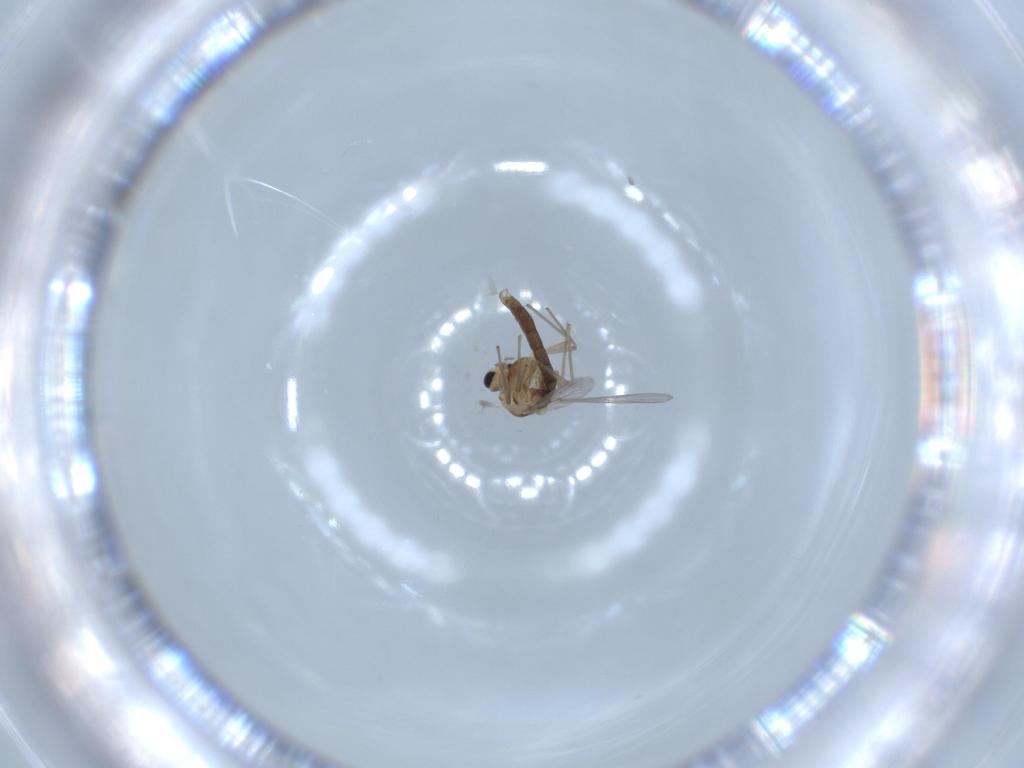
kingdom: Animalia
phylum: Arthropoda
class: Insecta
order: Diptera
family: Chironomidae
